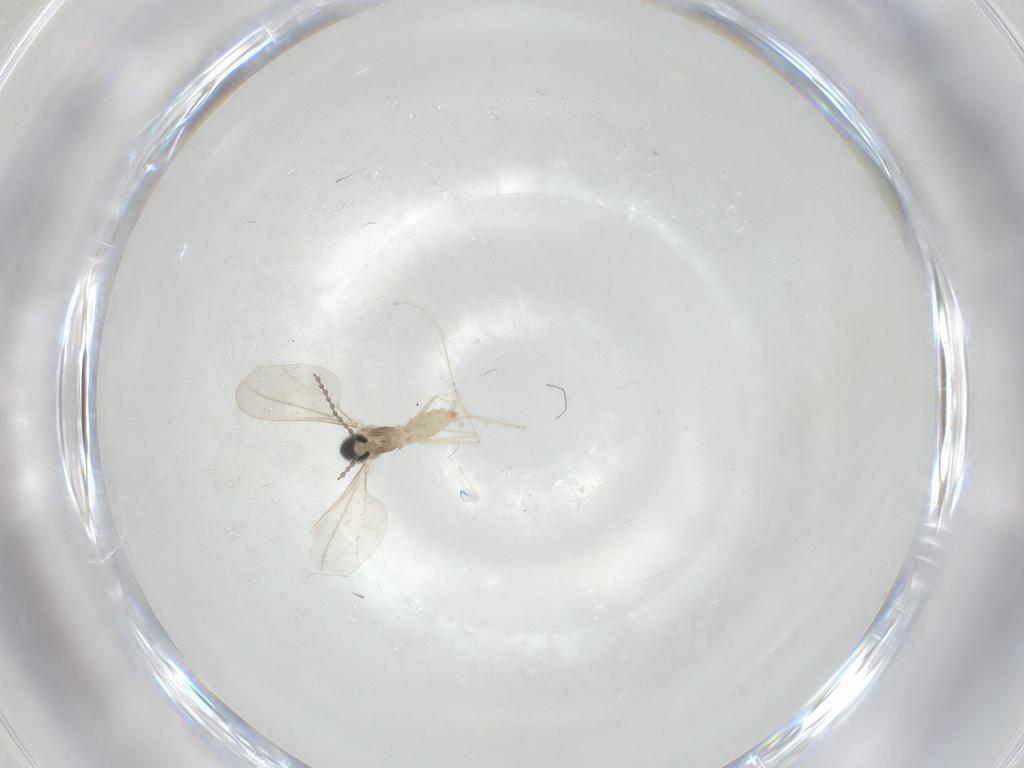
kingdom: Animalia
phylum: Arthropoda
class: Insecta
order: Diptera
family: Cecidomyiidae
